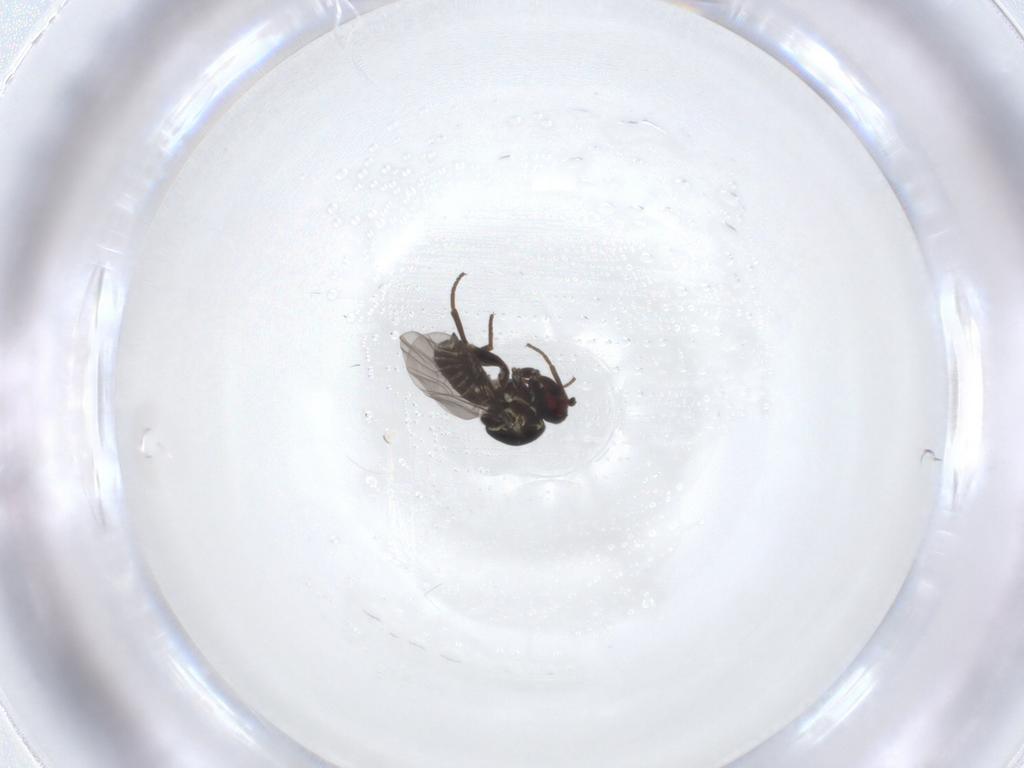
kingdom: Animalia
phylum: Arthropoda
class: Insecta
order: Diptera
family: Mythicomyiidae
